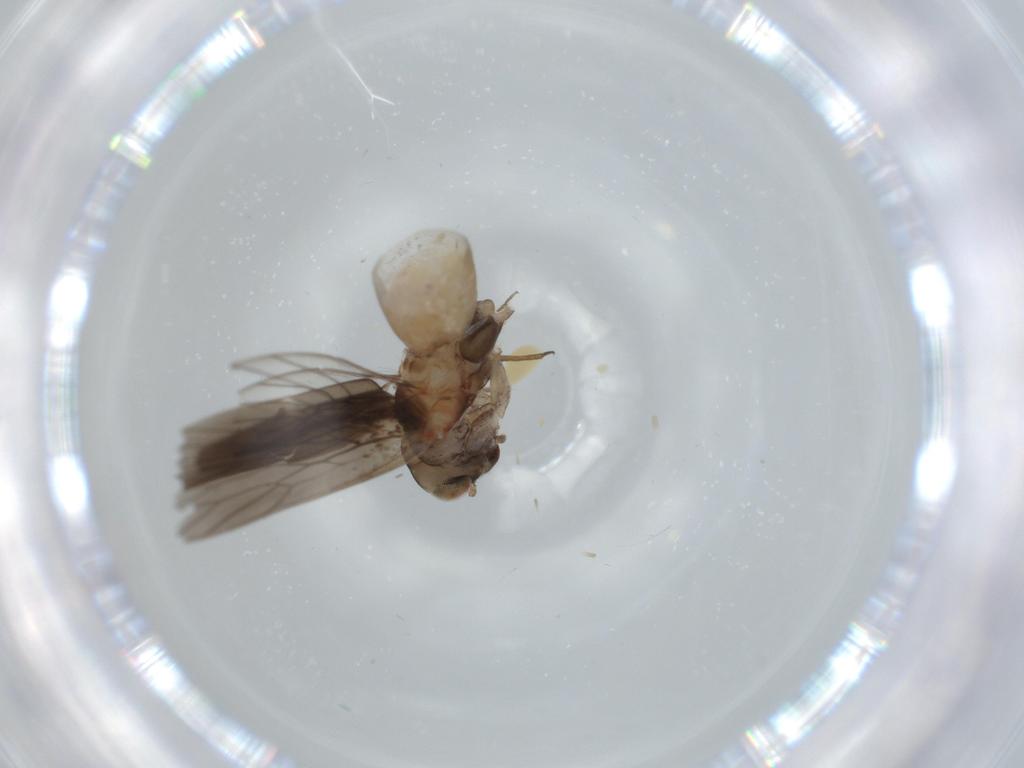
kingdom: Animalia
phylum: Arthropoda
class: Insecta
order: Psocodea
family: Lepidopsocidae
